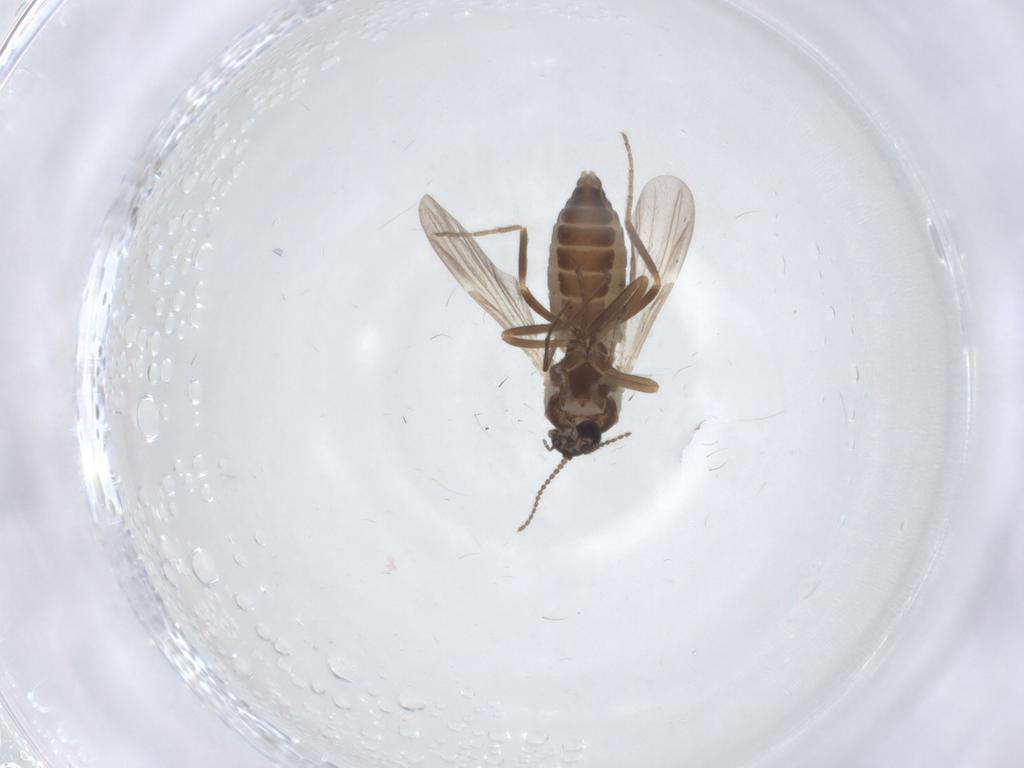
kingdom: Animalia
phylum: Arthropoda
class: Insecta
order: Diptera
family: Ceratopogonidae
